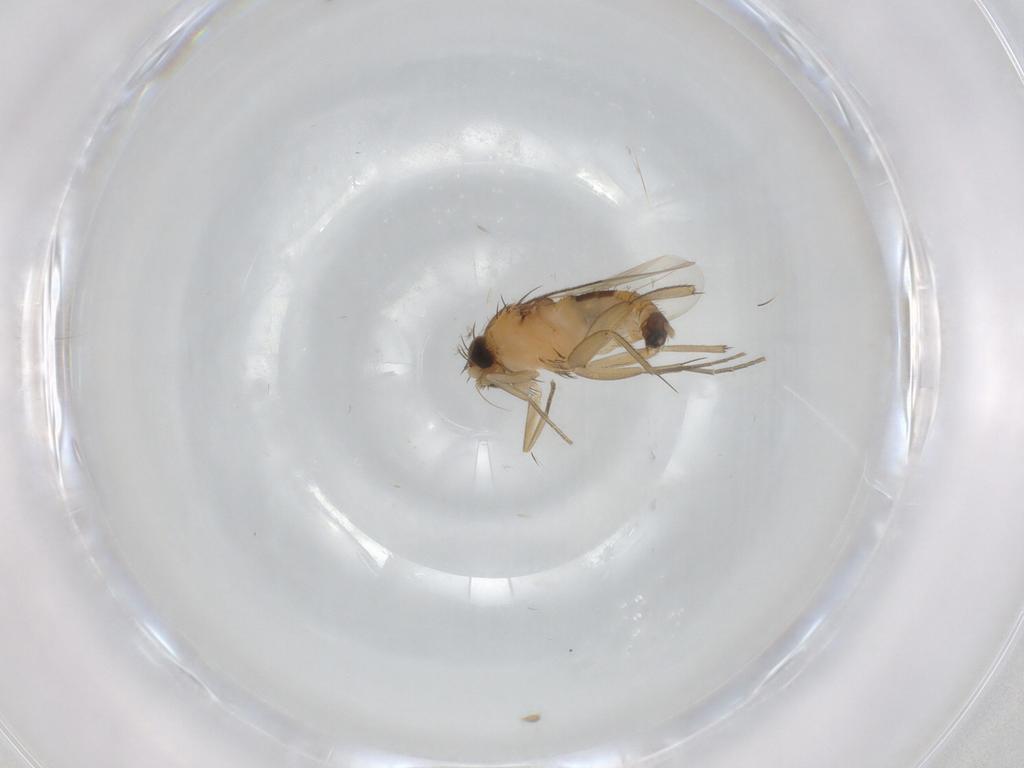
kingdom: Animalia
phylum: Arthropoda
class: Insecta
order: Diptera
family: Phoridae
